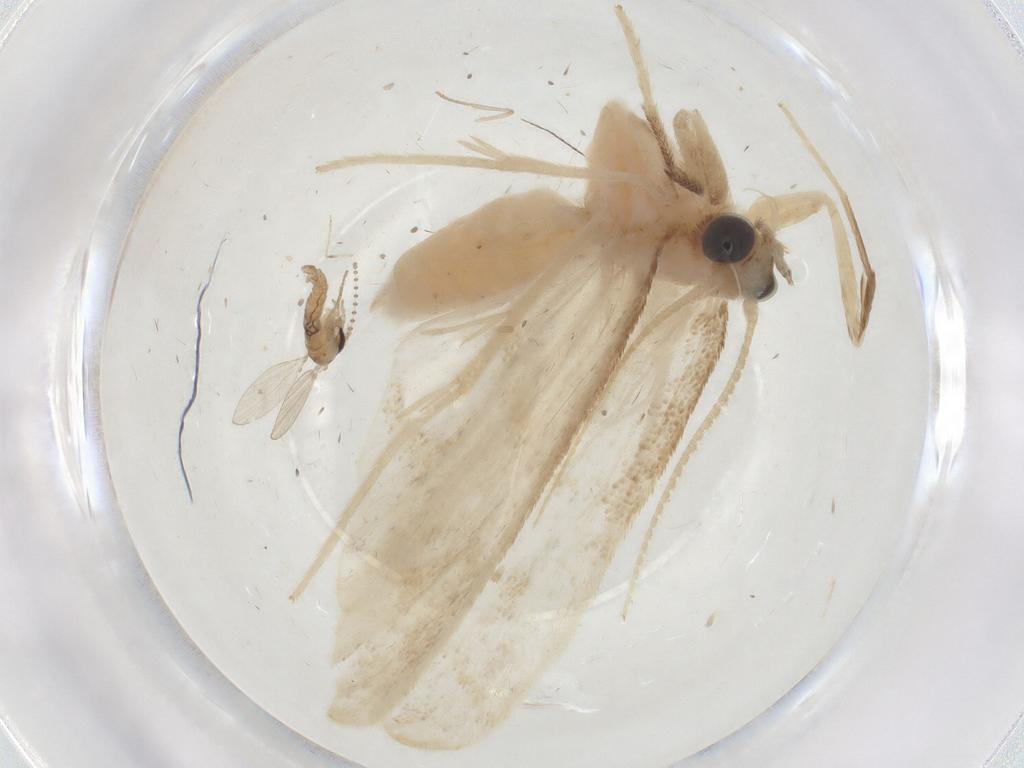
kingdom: Animalia
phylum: Arthropoda
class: Insecta
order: Lepidoptera
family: Crambidae
